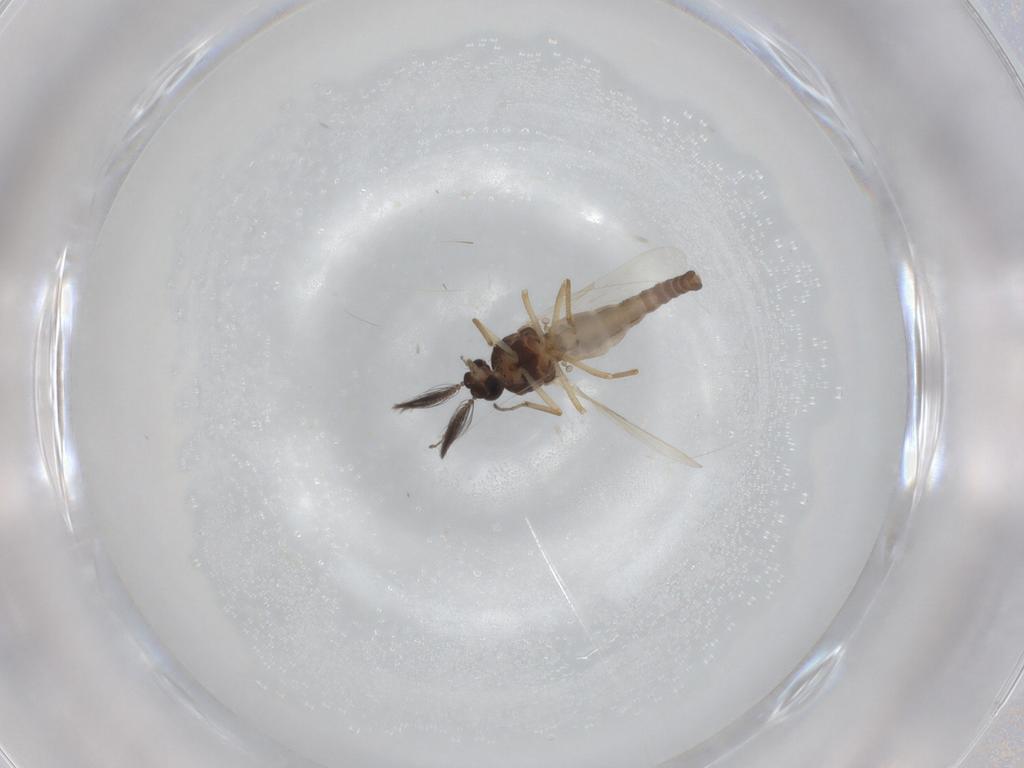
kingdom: Animalia
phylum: Arthropoda
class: Insecta
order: Diptera
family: Ceratopogonidae
